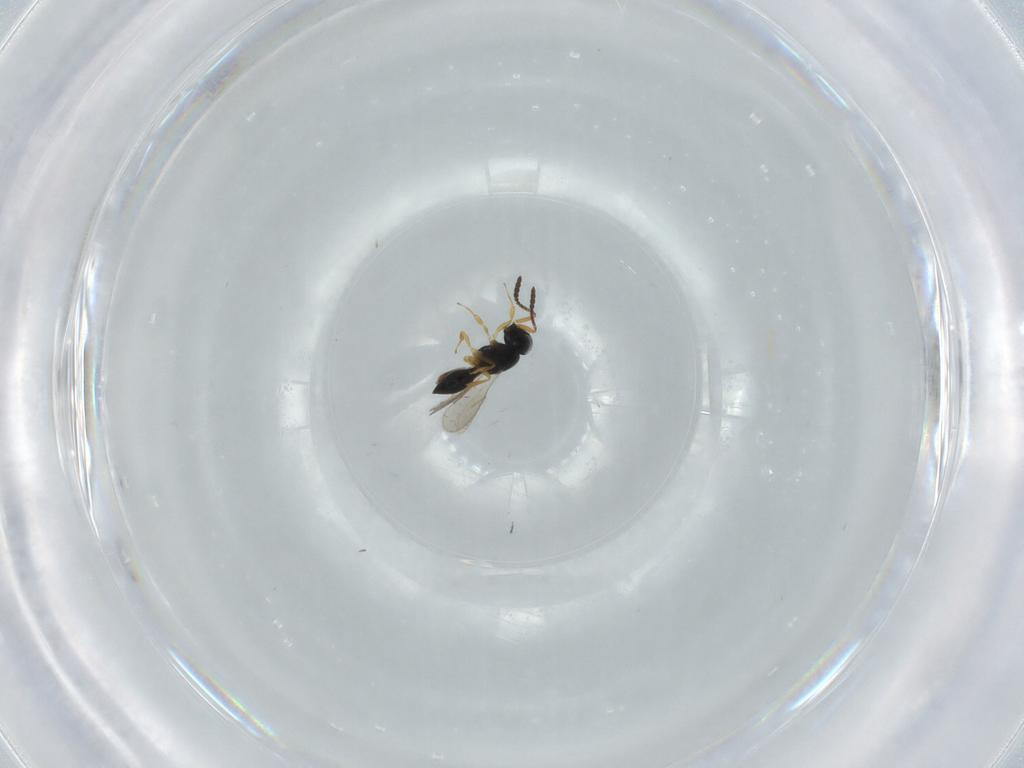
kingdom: Animalia
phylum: Arthropoda
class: Insecta
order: Hymenoptera
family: Scelionidae
